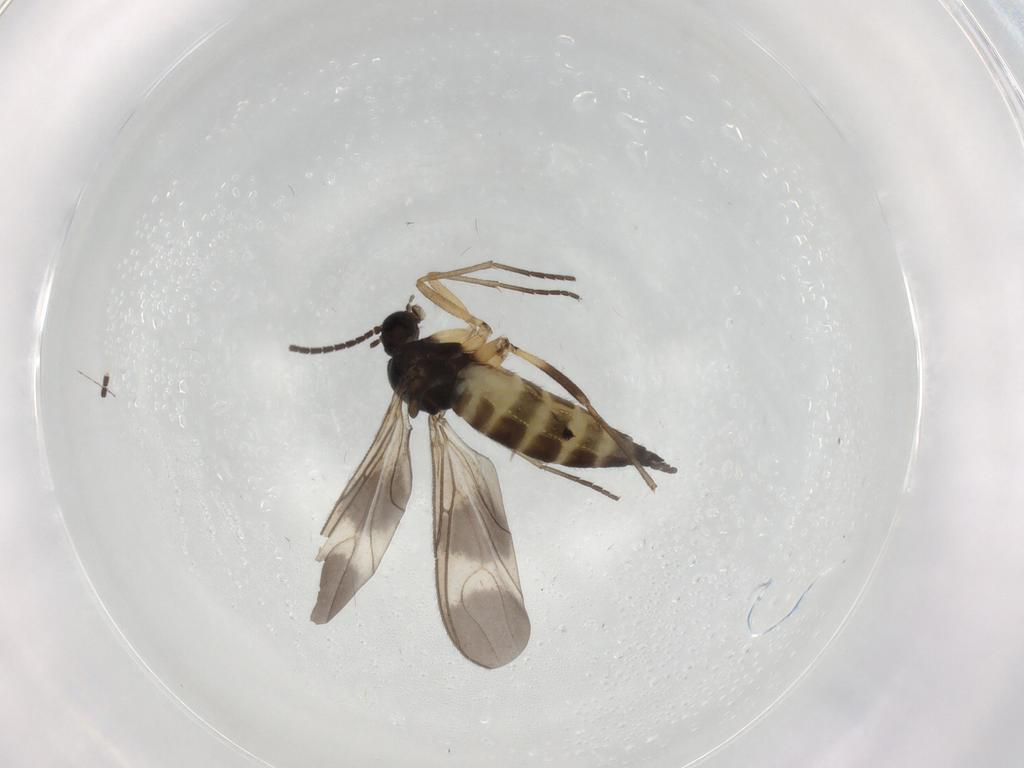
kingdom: Animalia
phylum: Arthropoda
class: Insecta
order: Diptera
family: Sciaridae
